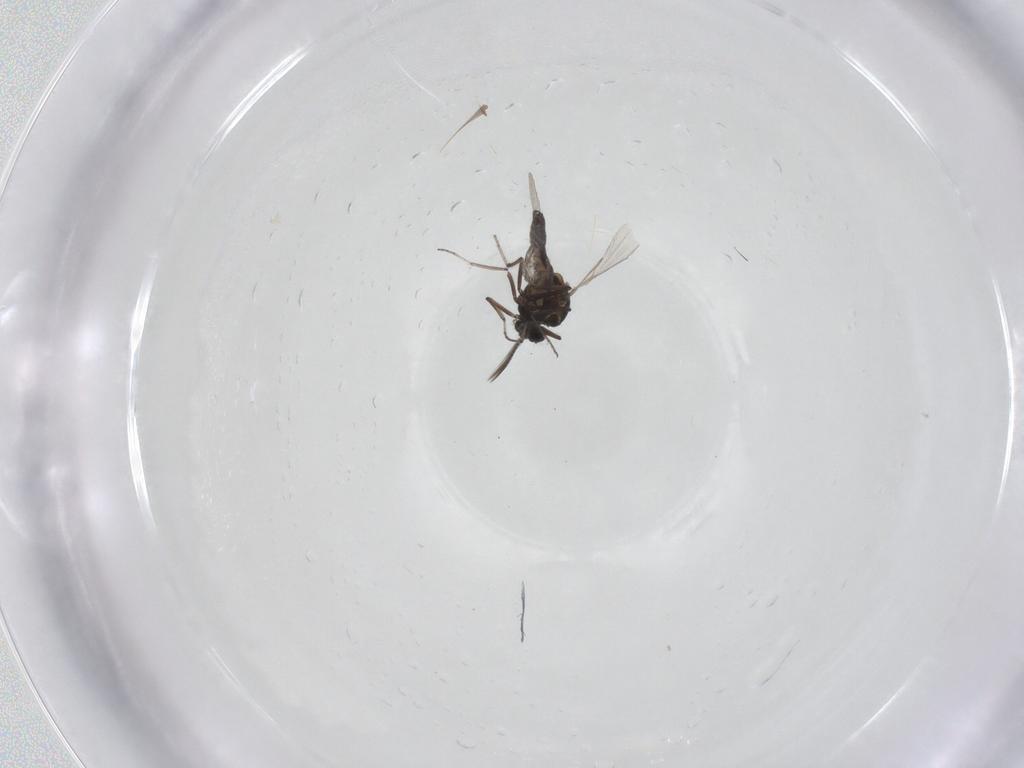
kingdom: Animalia
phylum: Arthropoda
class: Insecta
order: Diptera
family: Ceratopogonidae
